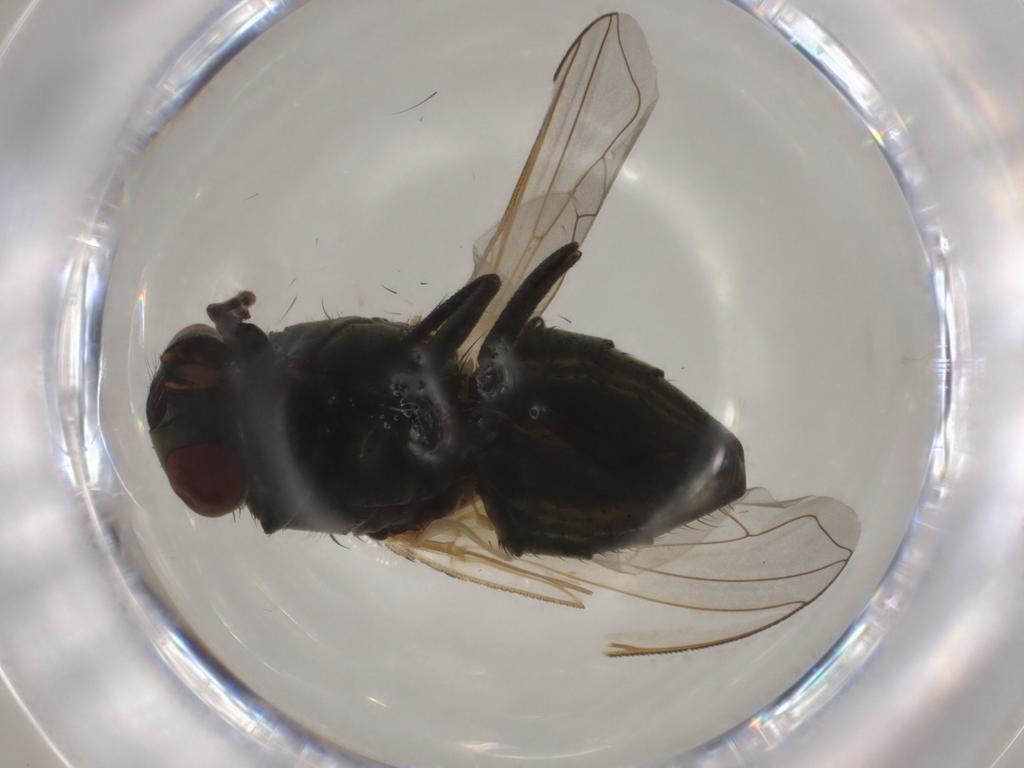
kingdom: Animalia
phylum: Arthropoda
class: Insecta
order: Diptera
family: Muscidae
